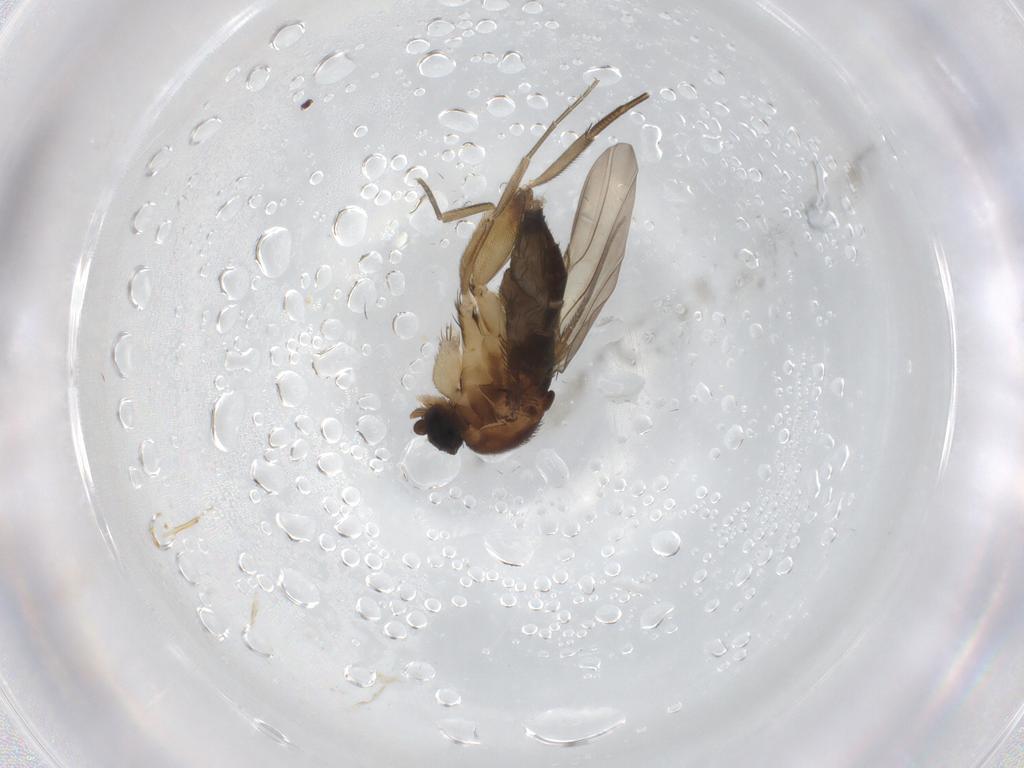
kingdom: Animalia
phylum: Arthropoda
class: Insecta
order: Diptera
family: Phoridae
